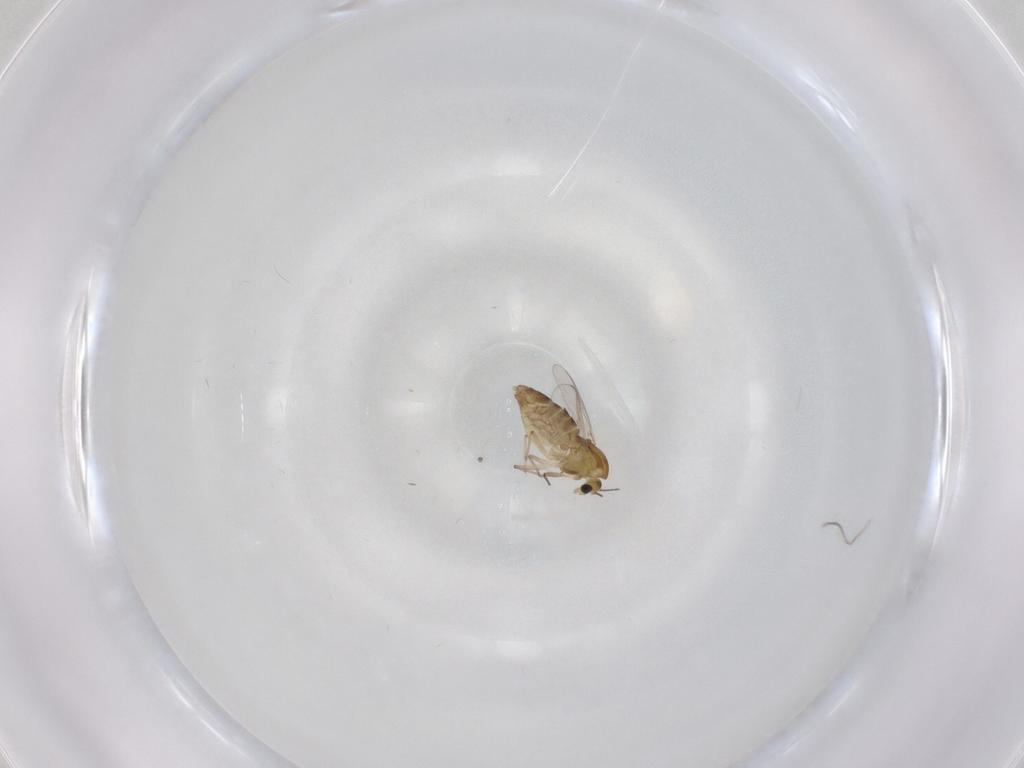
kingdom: Animalia
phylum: Arthropoda
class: Insecta
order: Diptera
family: Chironomidae
